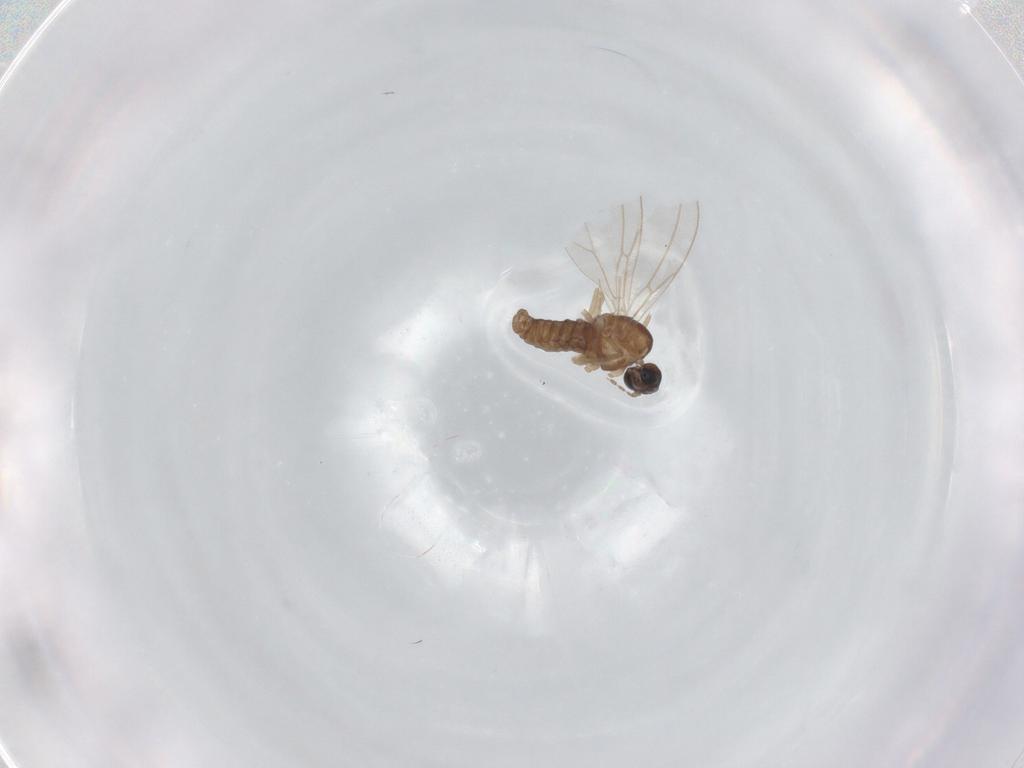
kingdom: Animalia
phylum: Arthropoda
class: Insecta
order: Diptera
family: Cecidomyiidae
